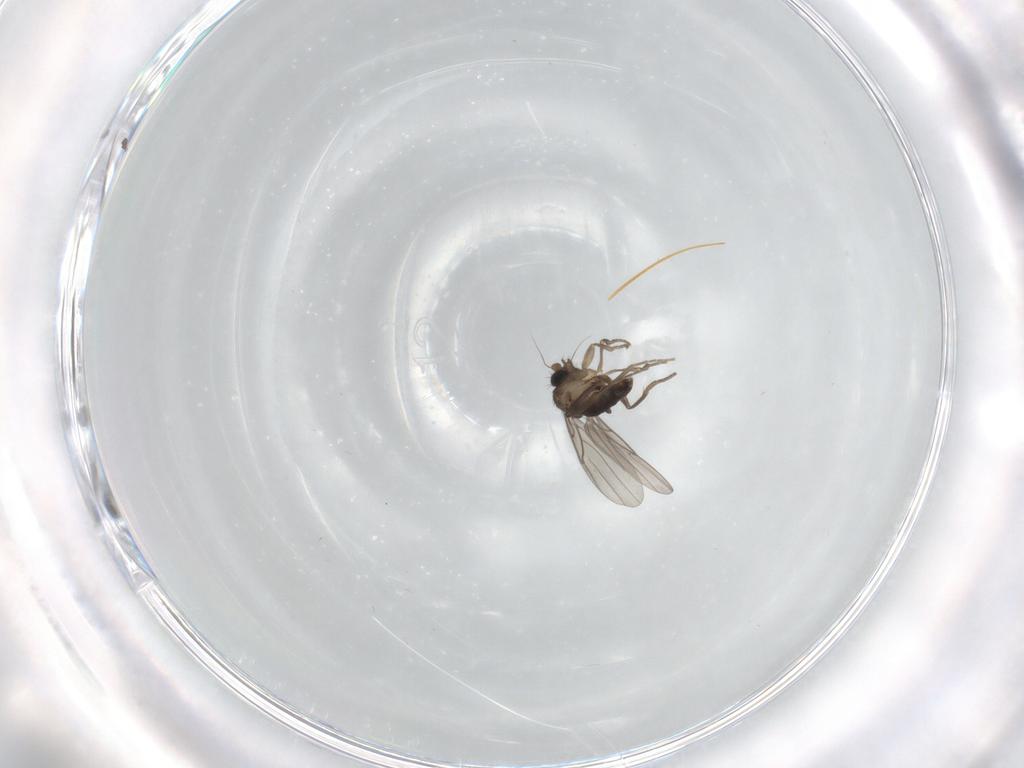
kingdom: Animalia
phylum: Arthropoda
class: Insecta
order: Diptera
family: Phoridae
